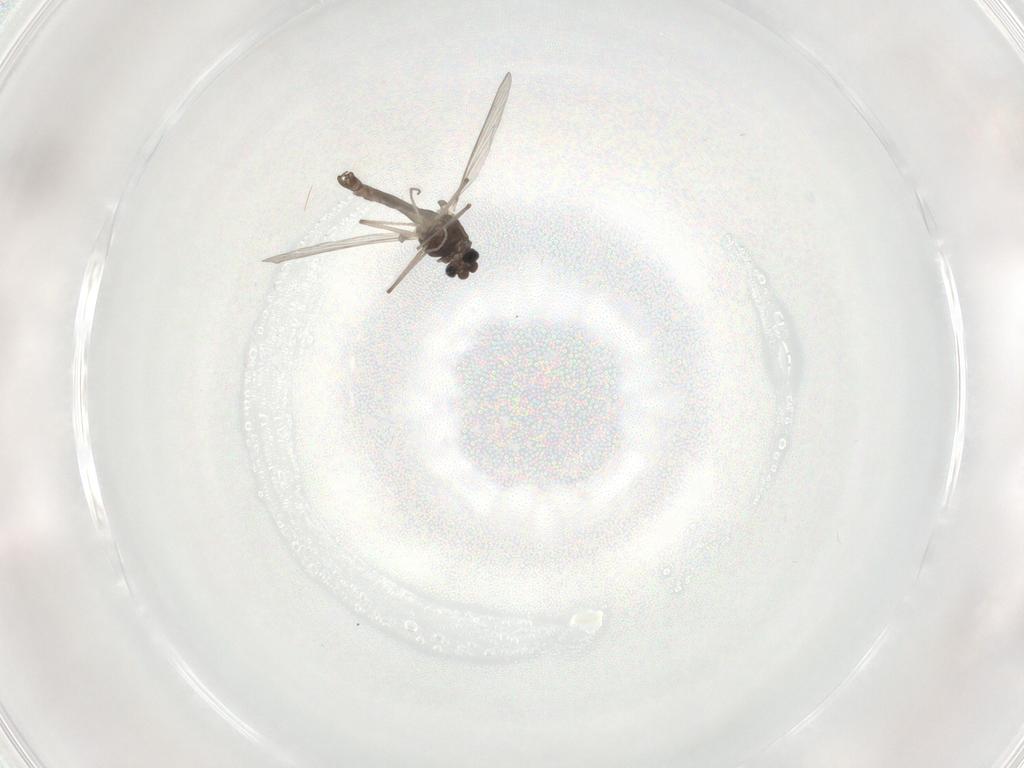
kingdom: Animalia
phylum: Arthropoda
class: Insecta
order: Diptera
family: Chironomidae
